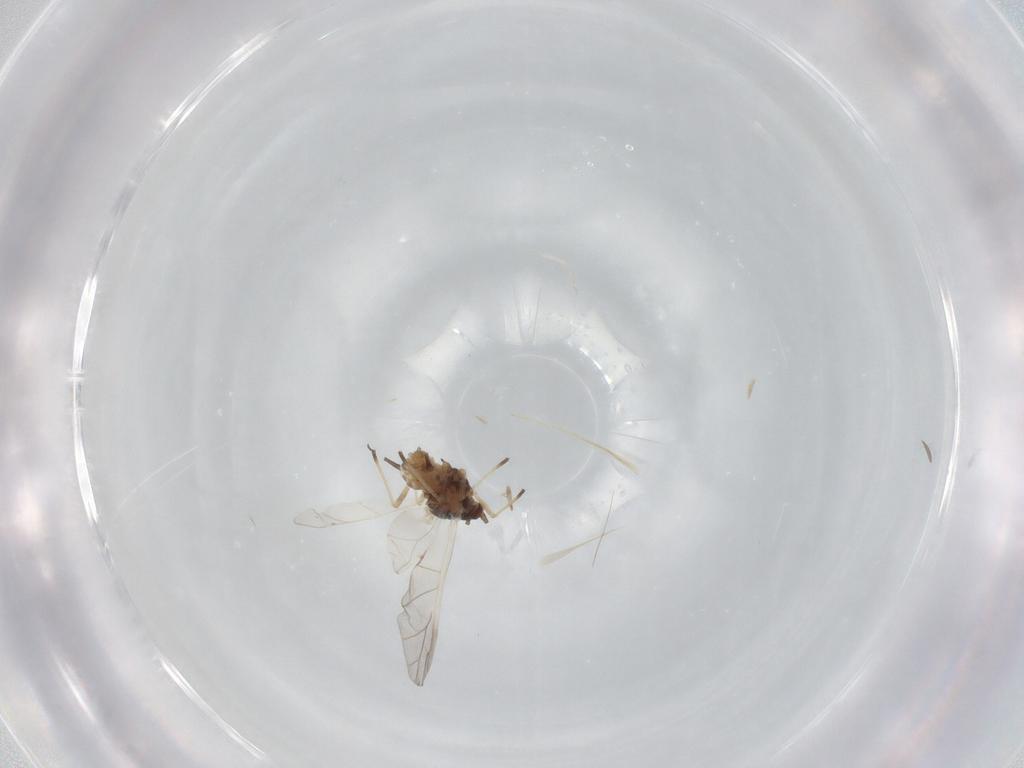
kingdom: Animalia
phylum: Arthropoda
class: Insecta
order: Hemiptera
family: Aphididae
